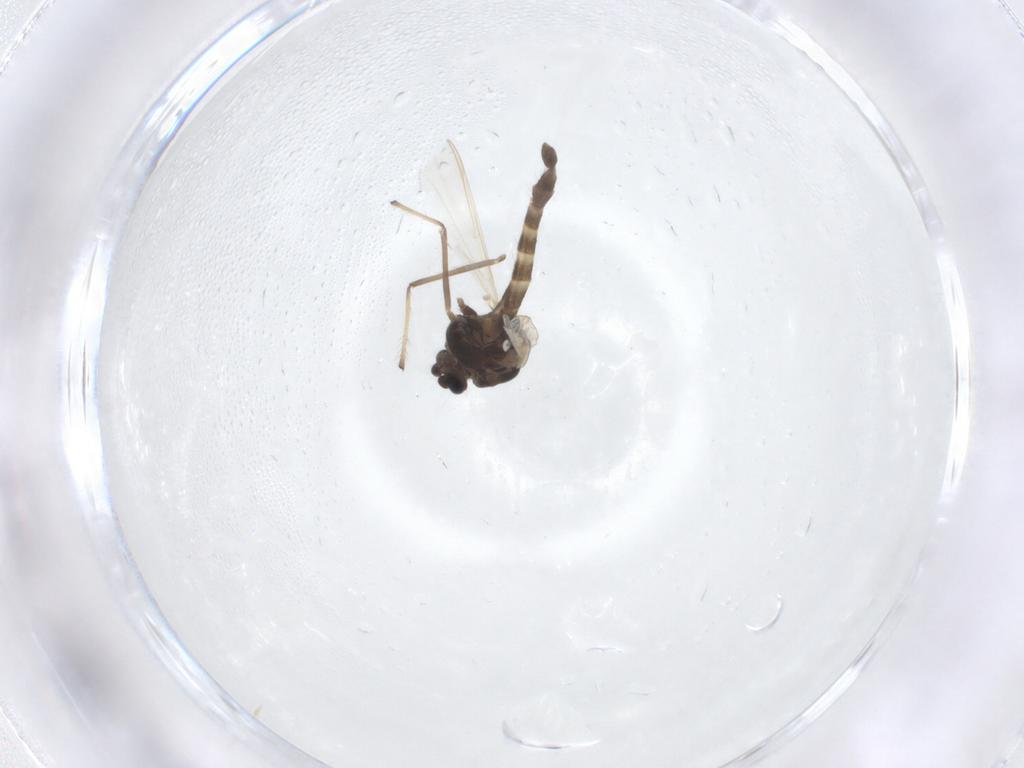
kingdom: Animalia
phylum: Arthropoda
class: Insecta
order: Diptera
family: Chironomidae
